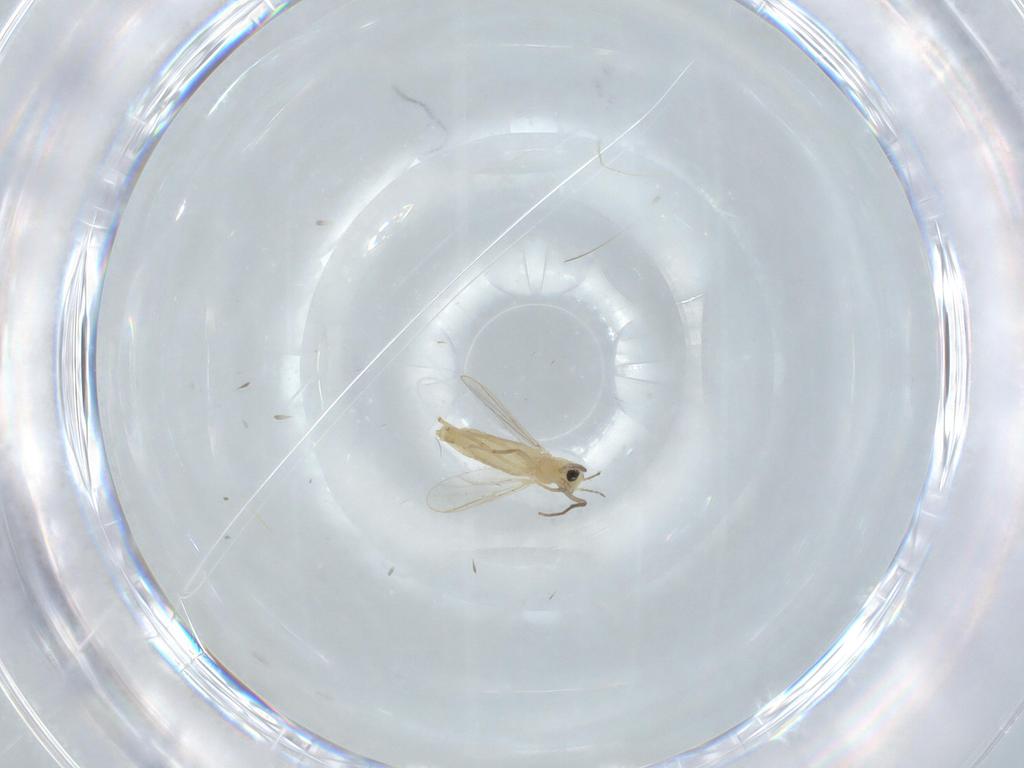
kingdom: Animalia
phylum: Arthropoda
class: Insecta
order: Diptera
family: Chironomidae
